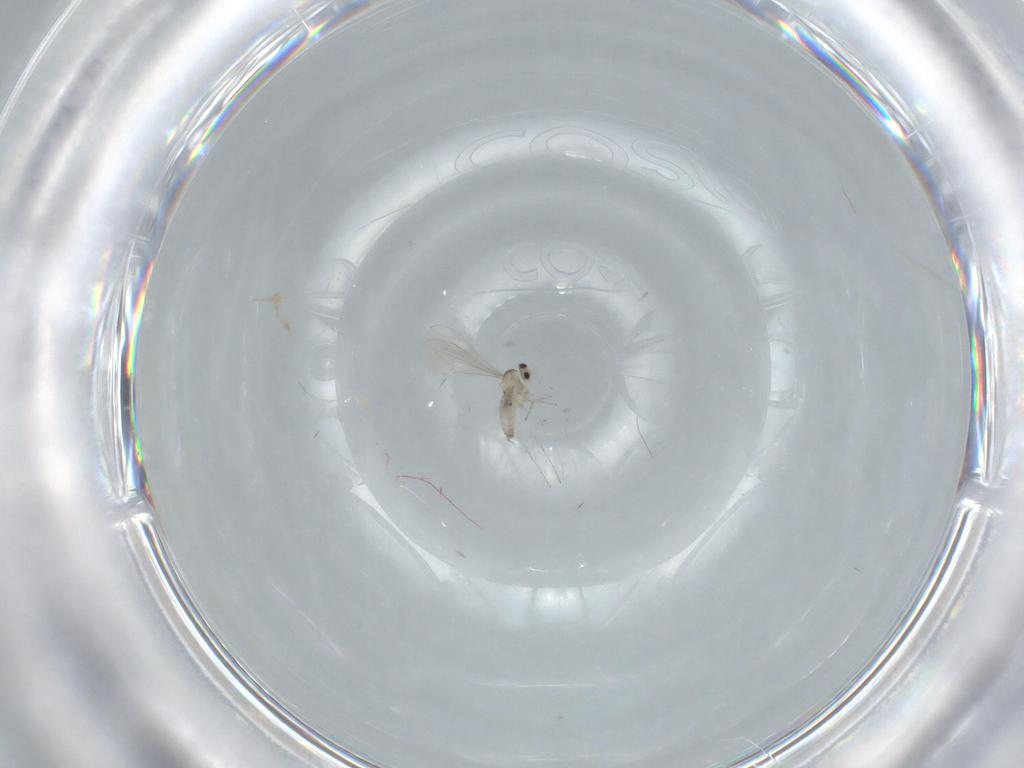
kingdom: Animalia
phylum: Arthropoda
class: Insecta
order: Diptera
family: Cecidomyiidae
